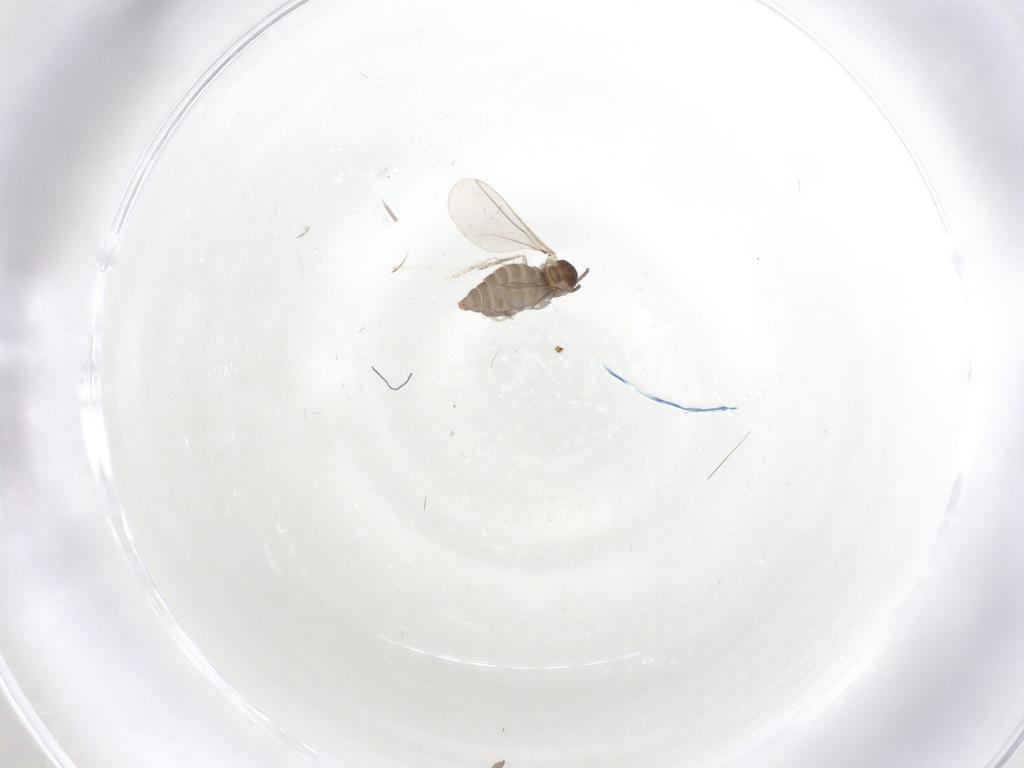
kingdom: Animalia
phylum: Arthropoda
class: Insecta
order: Diptera
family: Cecidomyiidae
